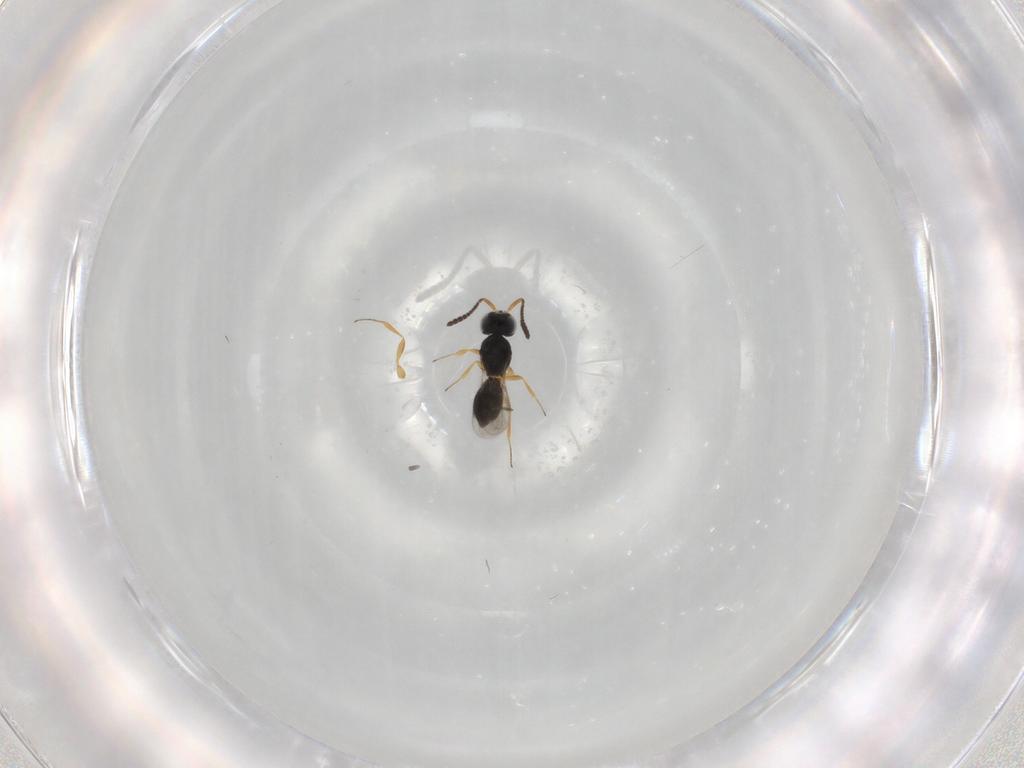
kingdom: Animalia
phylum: Arthropoda
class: Insecta
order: Hymenoptera
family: Scelionidae
